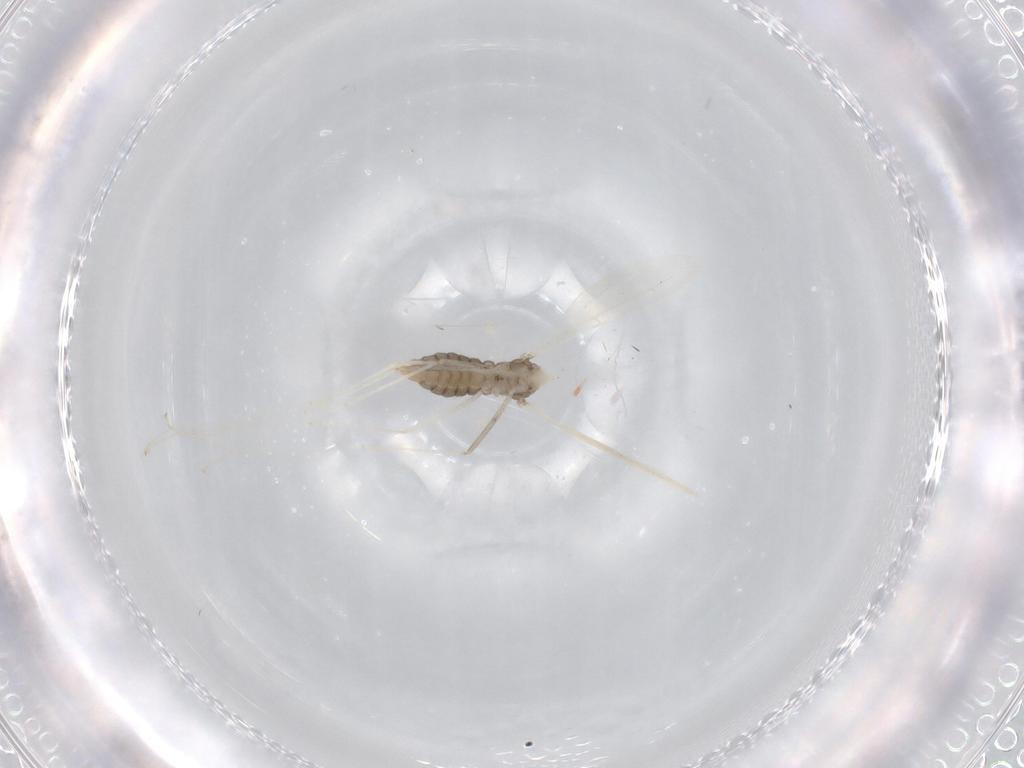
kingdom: Animalia
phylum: Arthropoda
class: Insecta
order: Diptera
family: Cecidomyiidae
